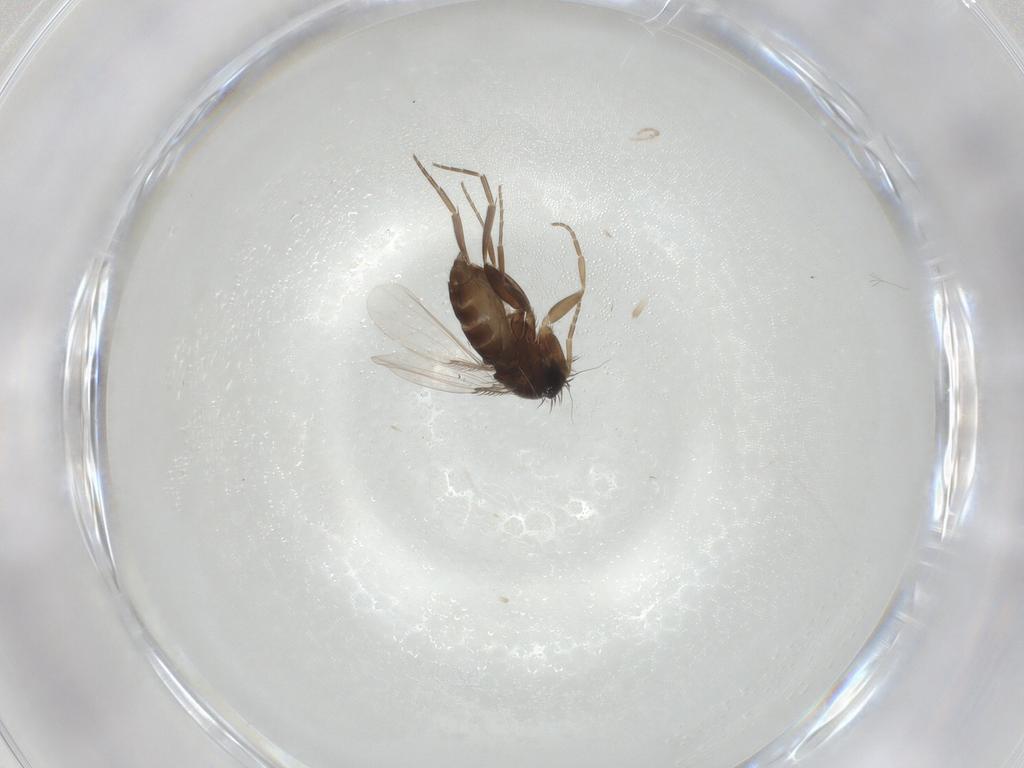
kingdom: Animalia
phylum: Arthropoda
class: Insecta
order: Diptera
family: Phoridae
